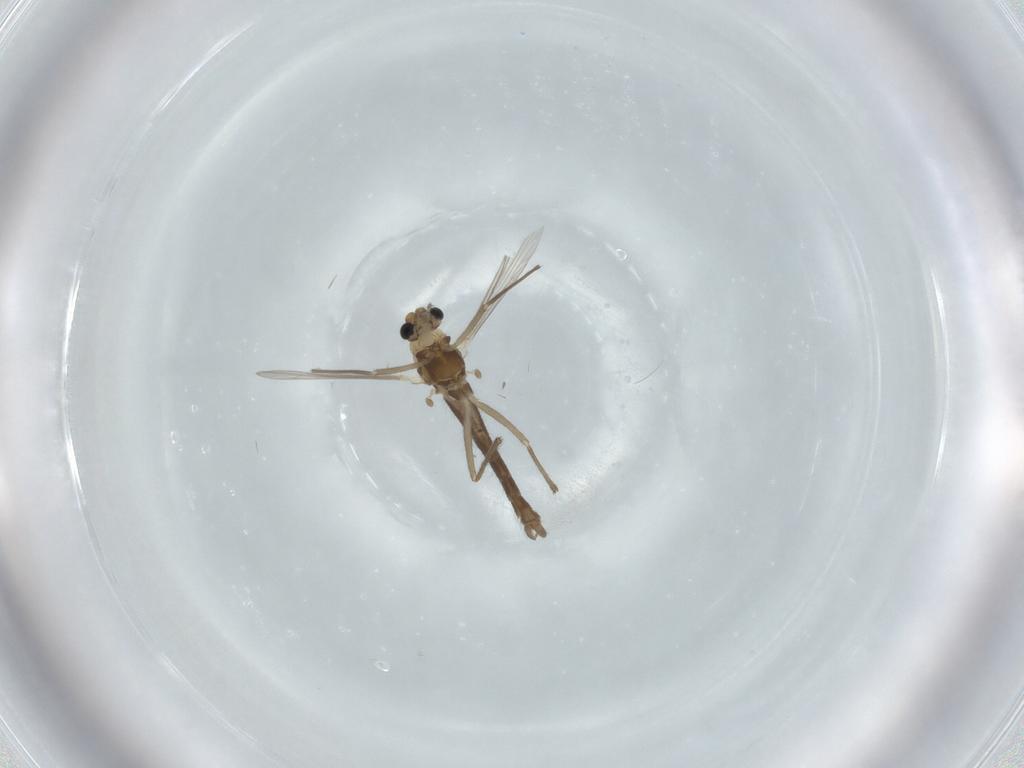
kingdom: Animalia
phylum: Arthropoda
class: Insecta
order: Diptera
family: Chironomidae
